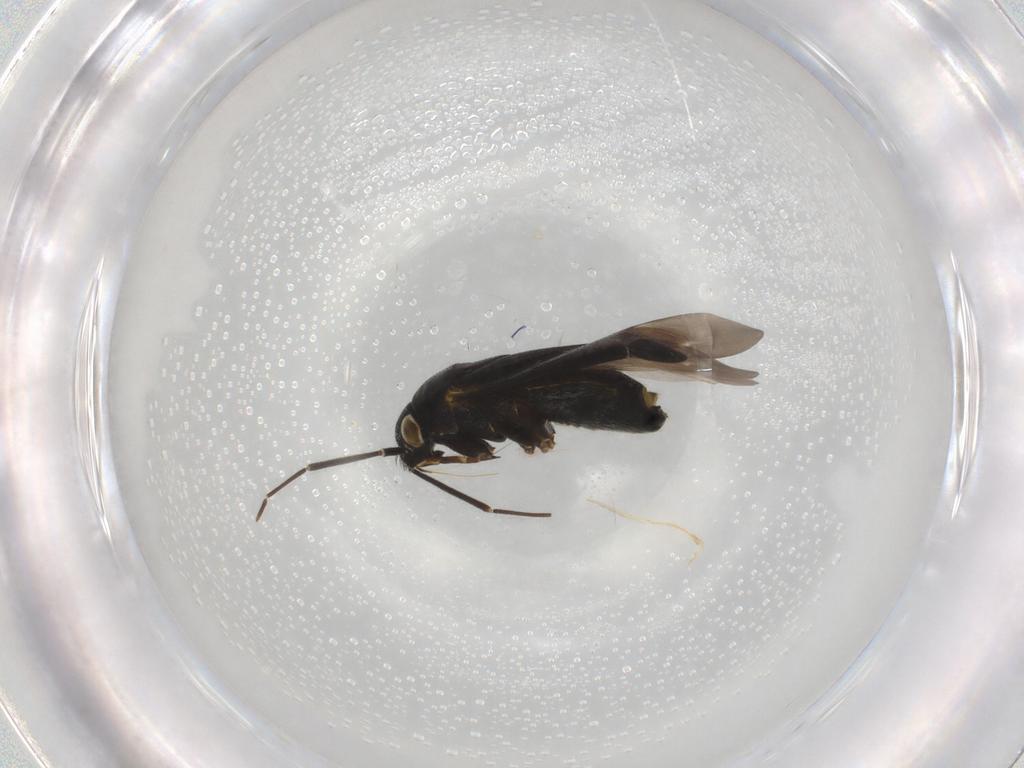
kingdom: Animalia
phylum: Arthropoda
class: Insecta
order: Hemiptera
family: Miridae
